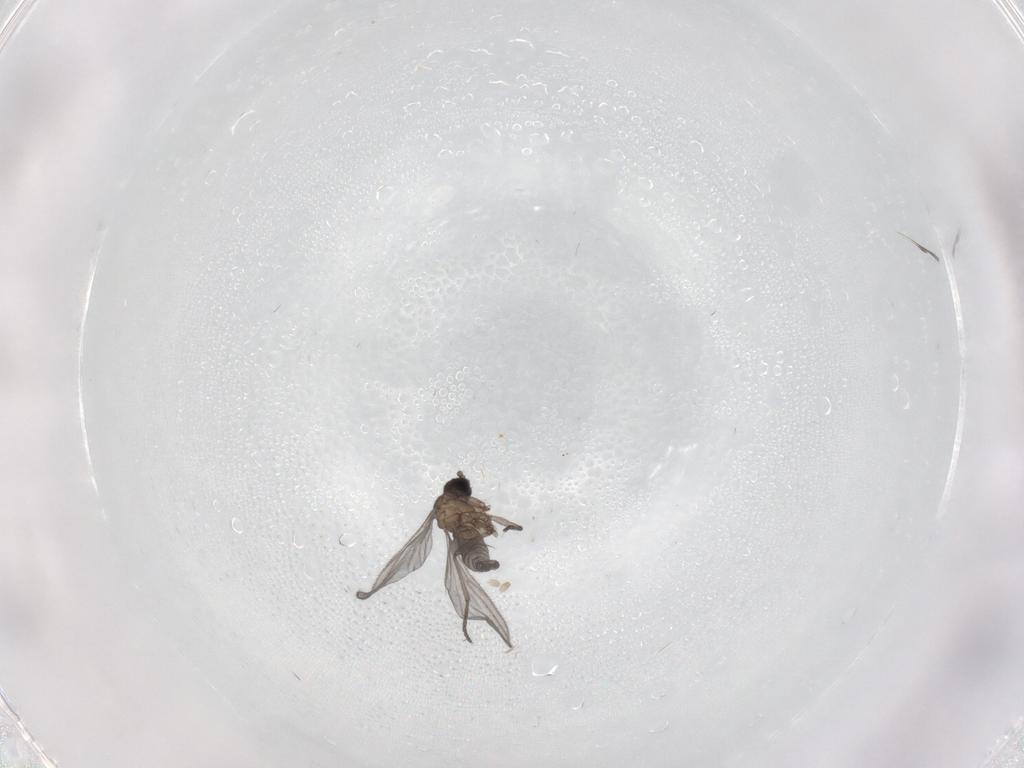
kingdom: Animalia
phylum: Arthropoda
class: Insecta
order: Diptera
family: Sciaridae
